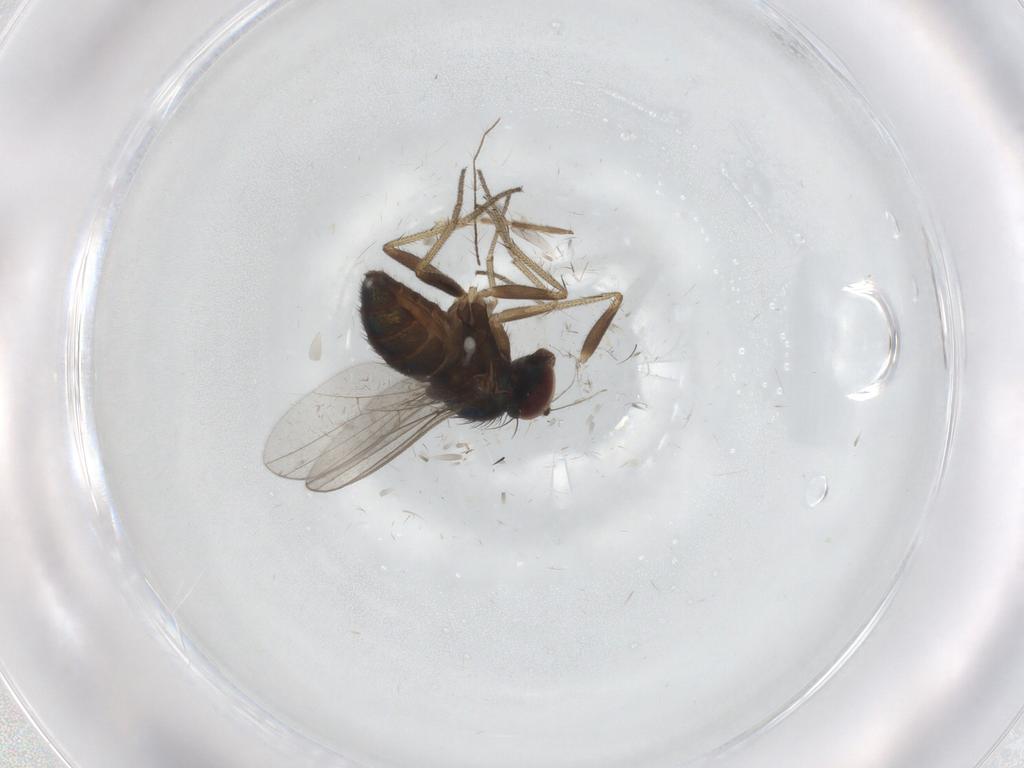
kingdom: Animalia
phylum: Arthropoda
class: Insecta
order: Diptera
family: Chironomidae
